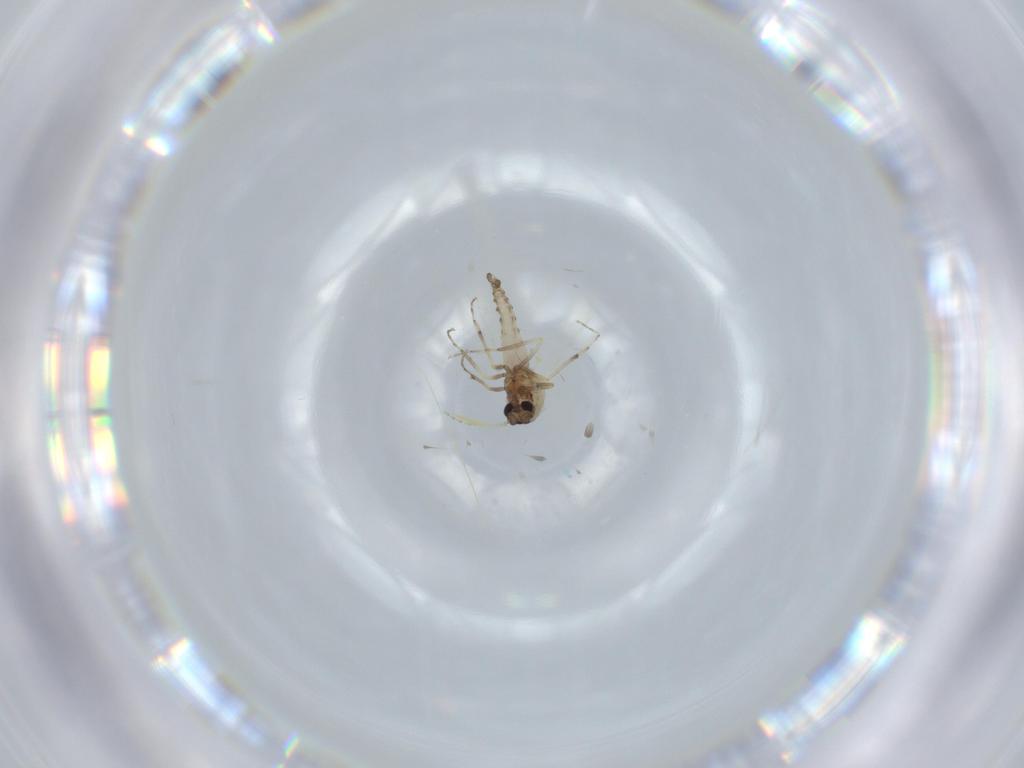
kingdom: Animalia
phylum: Arthropoda
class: Insecta
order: Diptera
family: Ceratopogonidae
